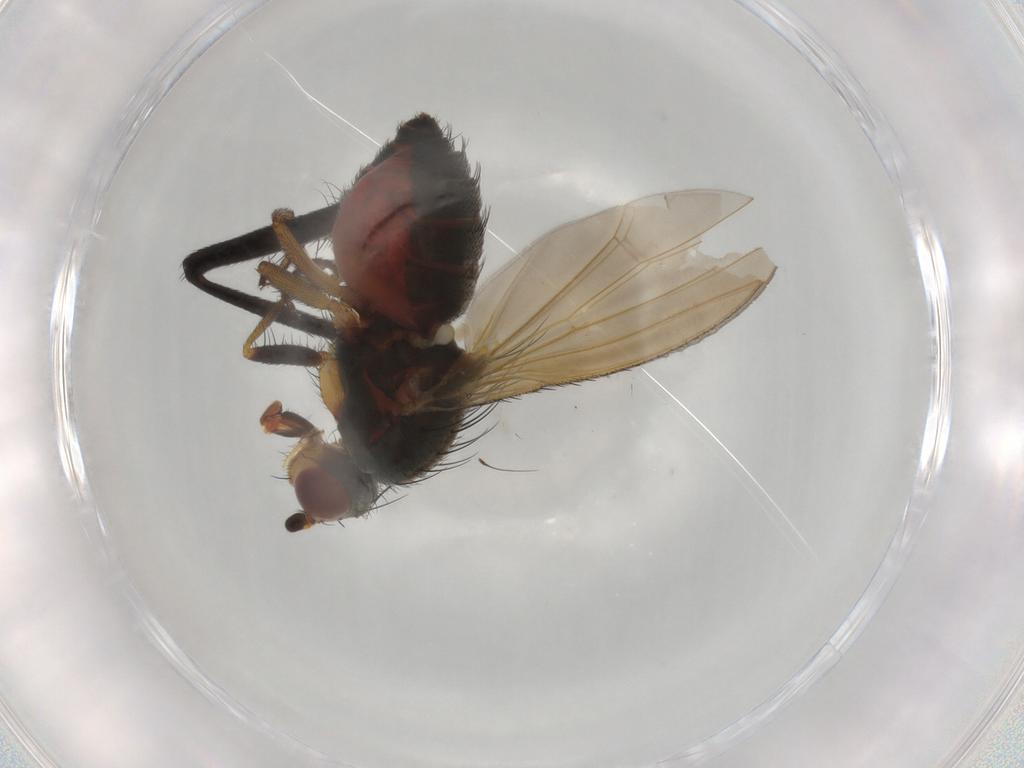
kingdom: Animalia
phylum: Arthropoda
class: Insecta
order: Diptera
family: Anthomyiidae
